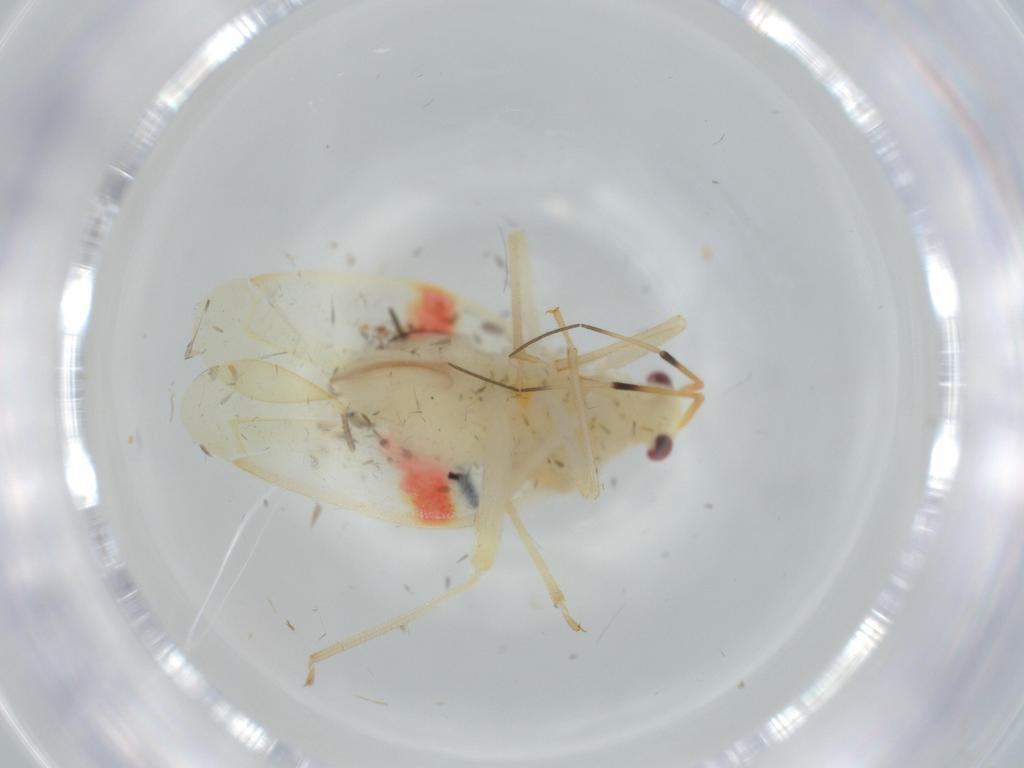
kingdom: Animalia
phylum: Arthropoda
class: Insecta
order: Hemiptera
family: Miridae
